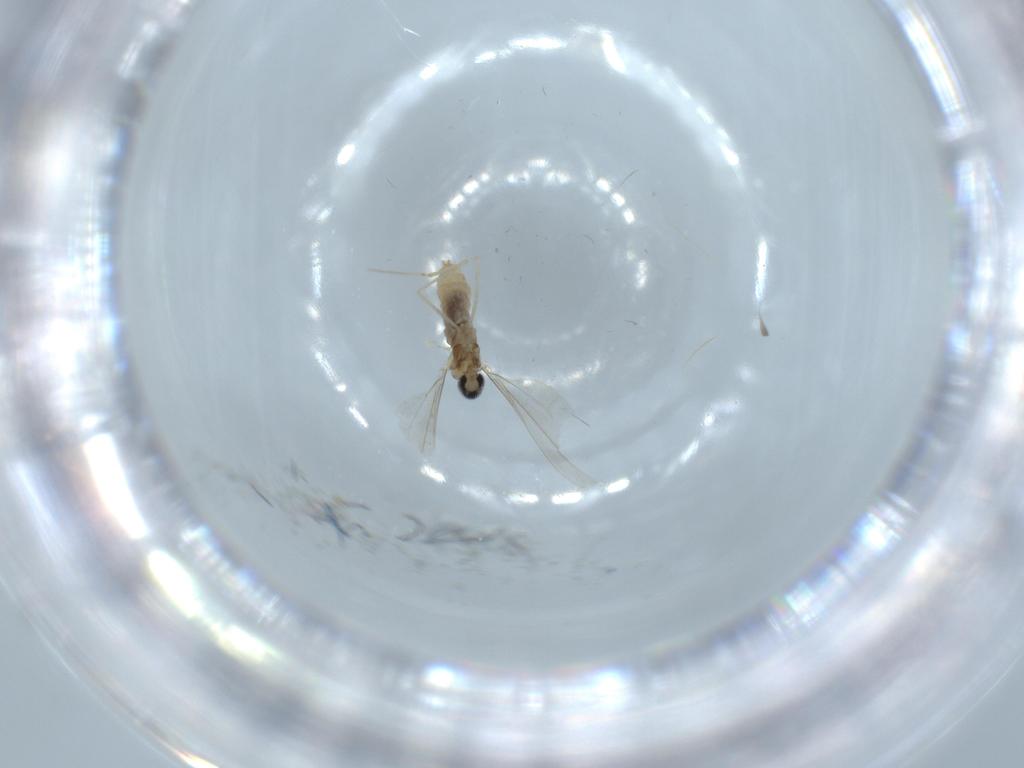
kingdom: Animalia
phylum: Arthropoda
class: Insecta
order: Diptera
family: Cecidomyiidae
